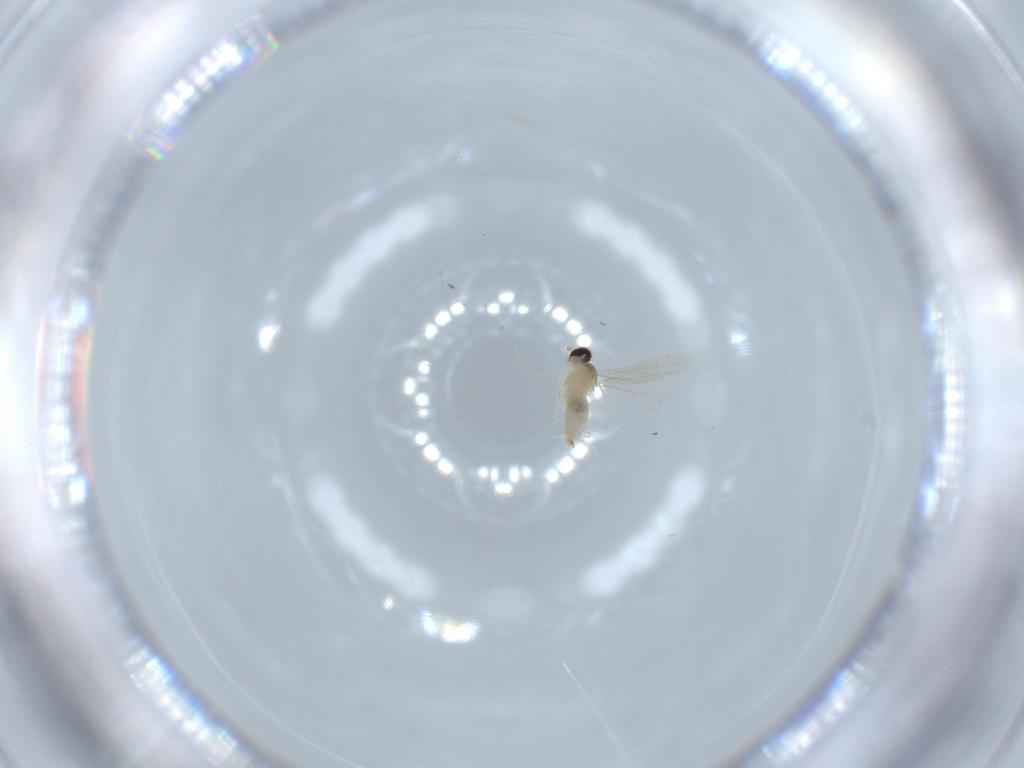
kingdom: Animalia
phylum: Arthropoda
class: Insecta
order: Diptera
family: Cecidomyiidae
